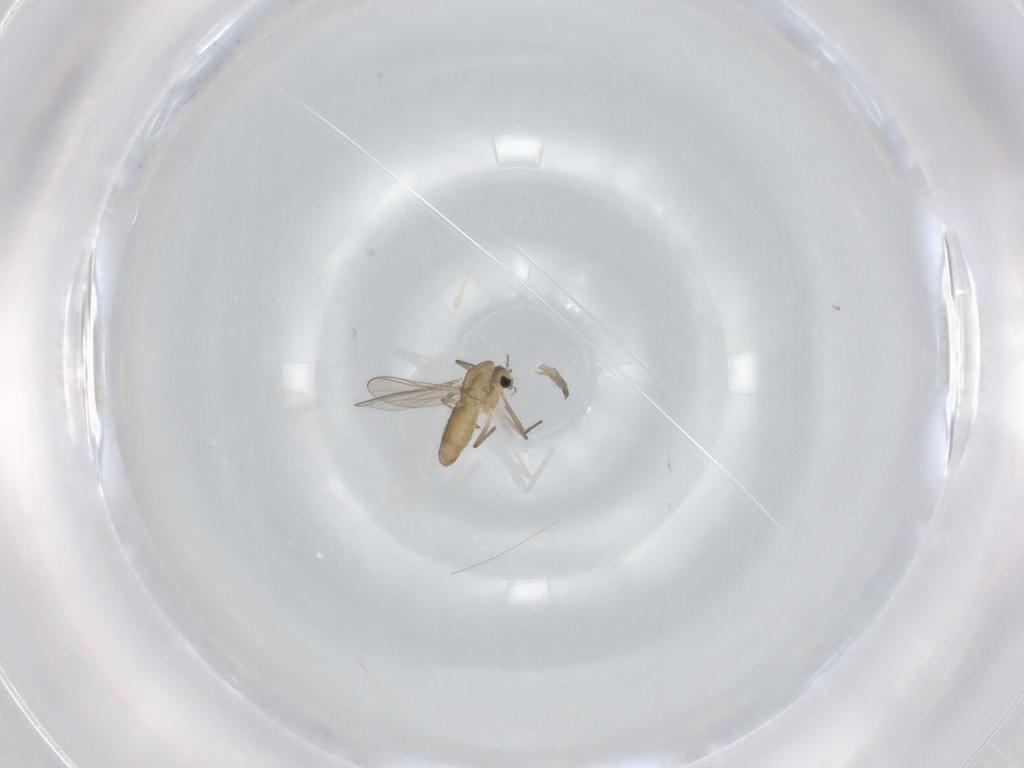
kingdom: Animalia
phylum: Arthropoda
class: Insecta
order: Diptera
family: Chironomidae
